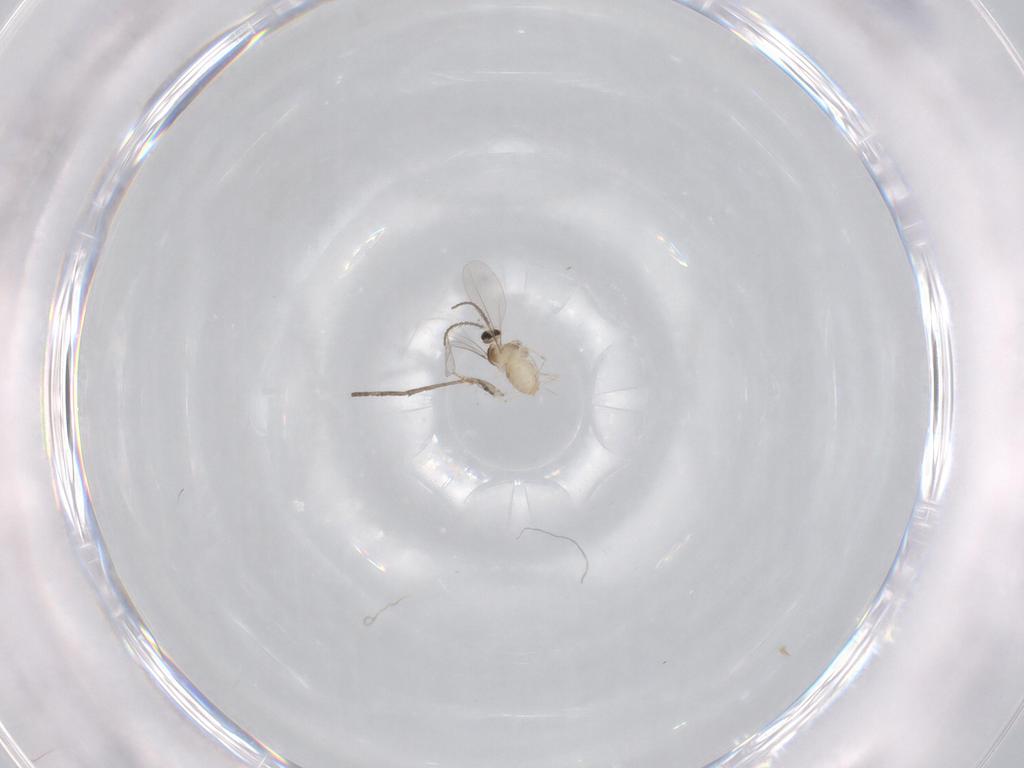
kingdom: Animalia
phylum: Arthropoda
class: Insecta
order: Diptera
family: Cecidomyiidae
